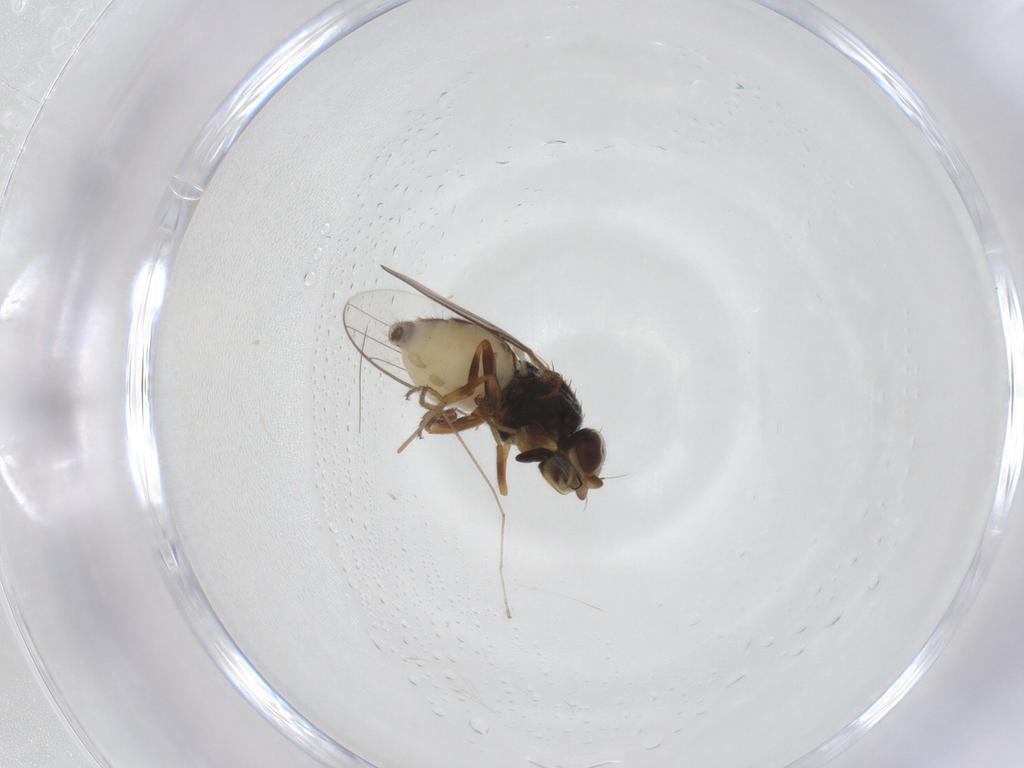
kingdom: Animalia
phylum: Arthropoda
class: Insecta
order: Diptera
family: Chloropidae
